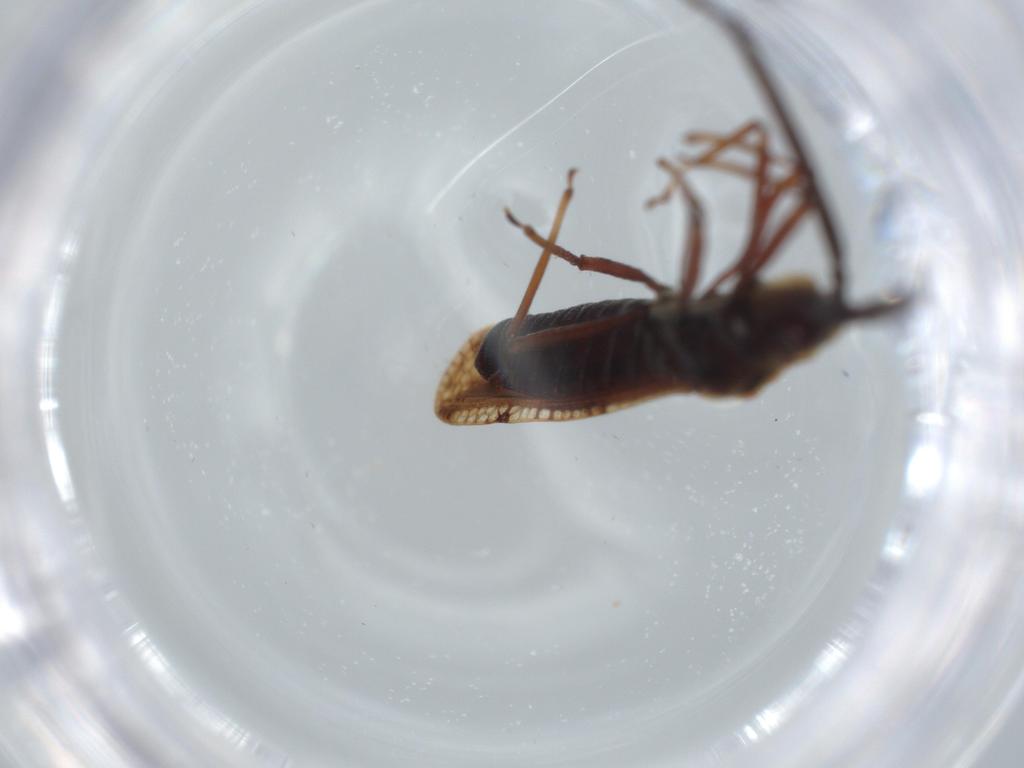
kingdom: Animalia
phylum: Arthropoda
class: Insecta
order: Hemiptera
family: Tingidae
